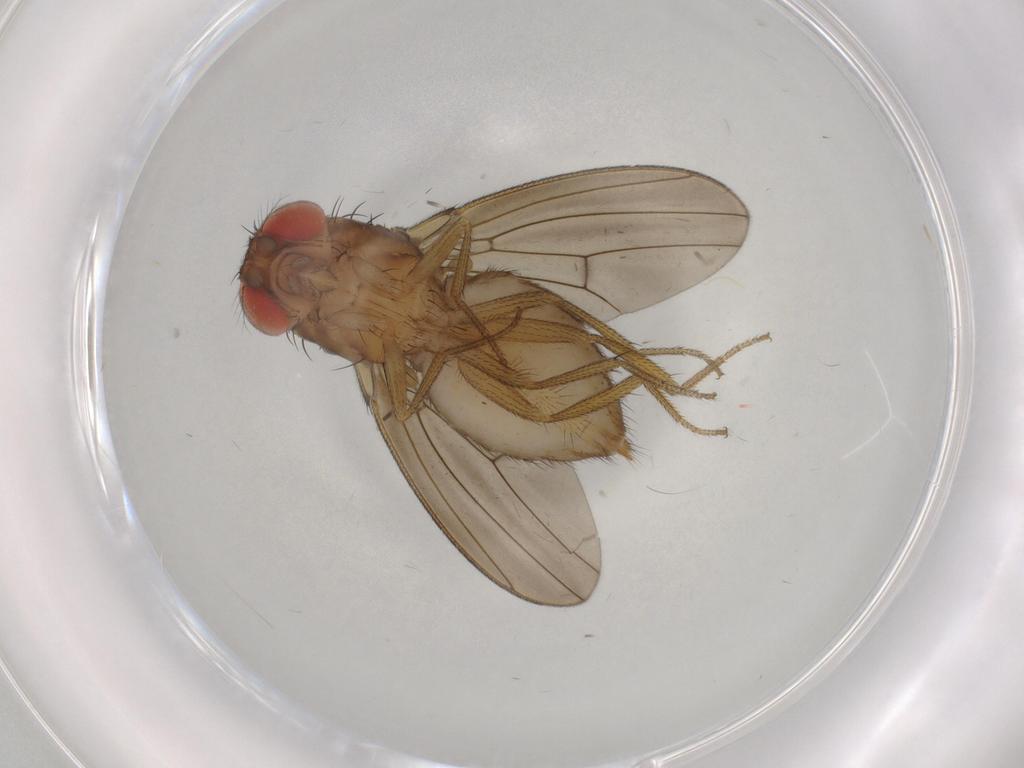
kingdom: Animalia
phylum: Arthropoda
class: Insecta
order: Diptera
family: Drosophilidae
